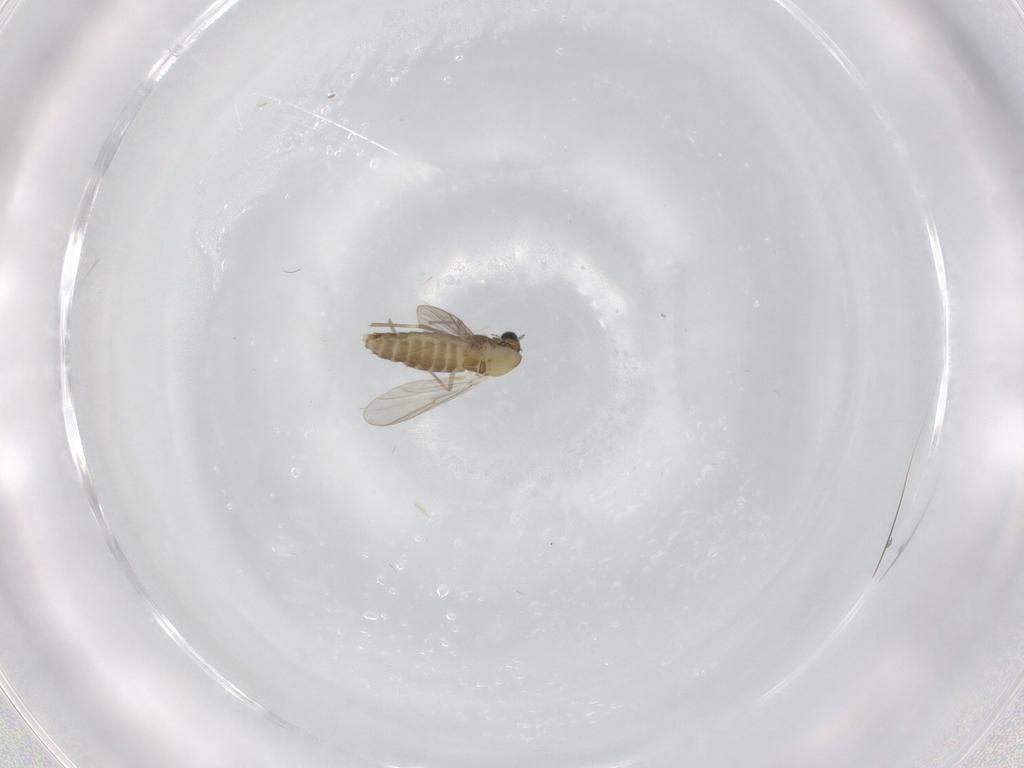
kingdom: Animalia
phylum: Arthropoda
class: Insecta
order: Diptera
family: Chironomidae
